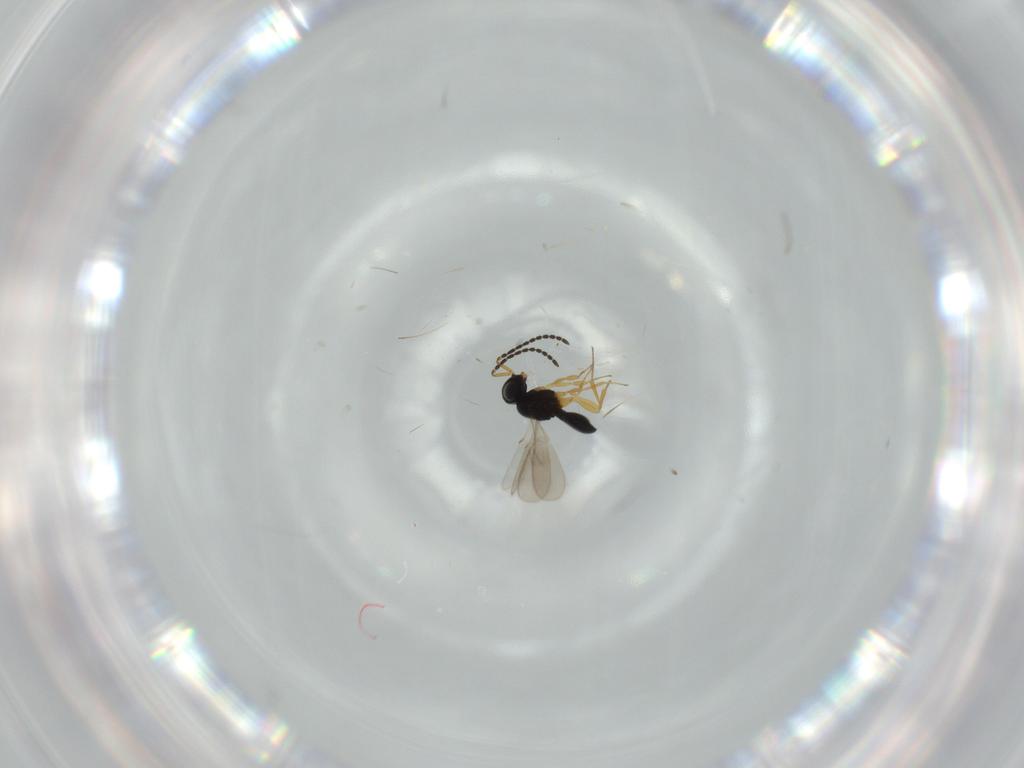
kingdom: Animalia
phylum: Arthropoda
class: Insecta
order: Hymenoptera
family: Scelionidae
